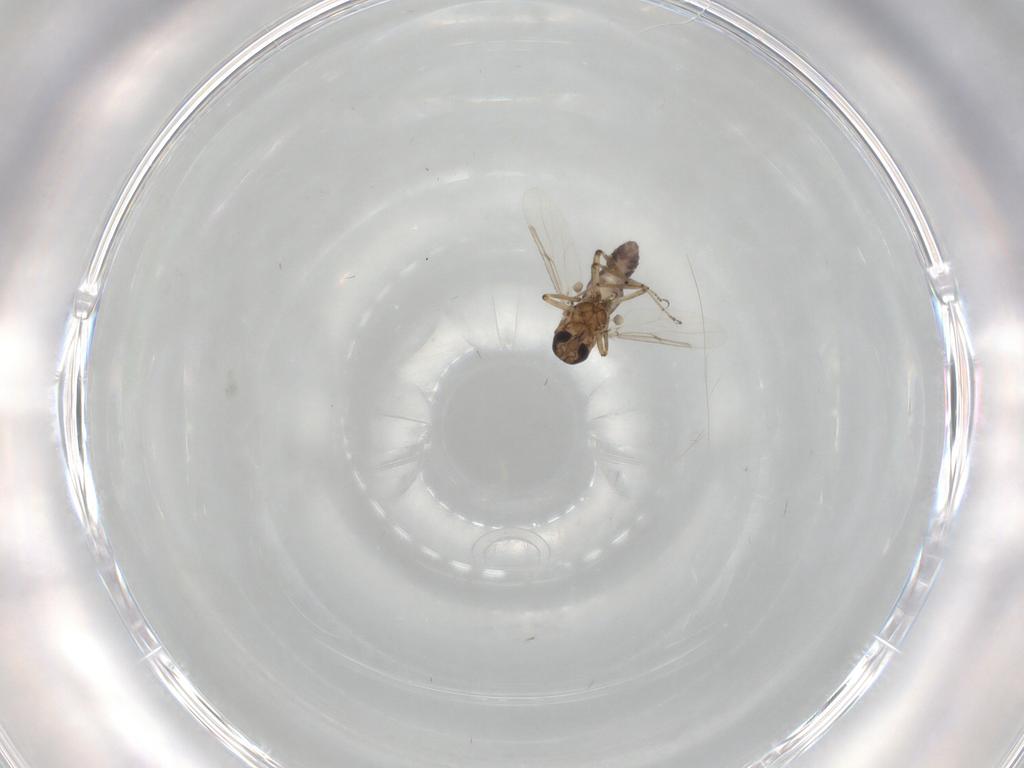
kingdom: Animalia
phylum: Arthropoda
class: Insecta
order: Diptera
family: Ceratopogonidae
